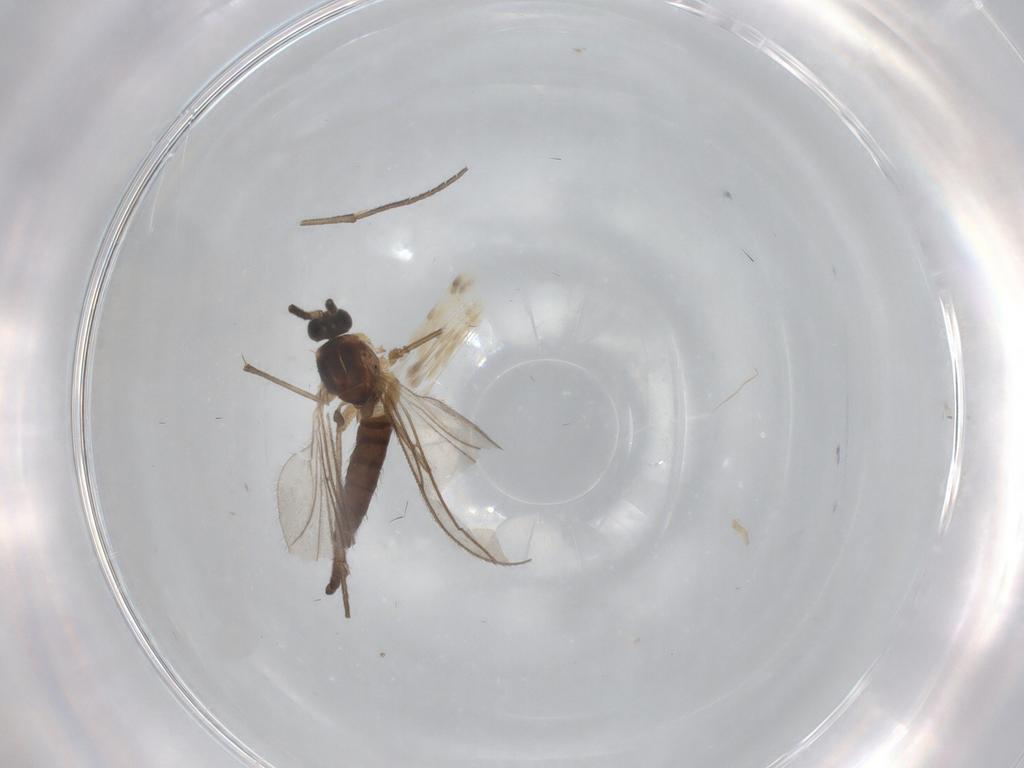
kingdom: Animalia
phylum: Arthropoda
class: Insecta
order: Diptera
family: Sciaridae
